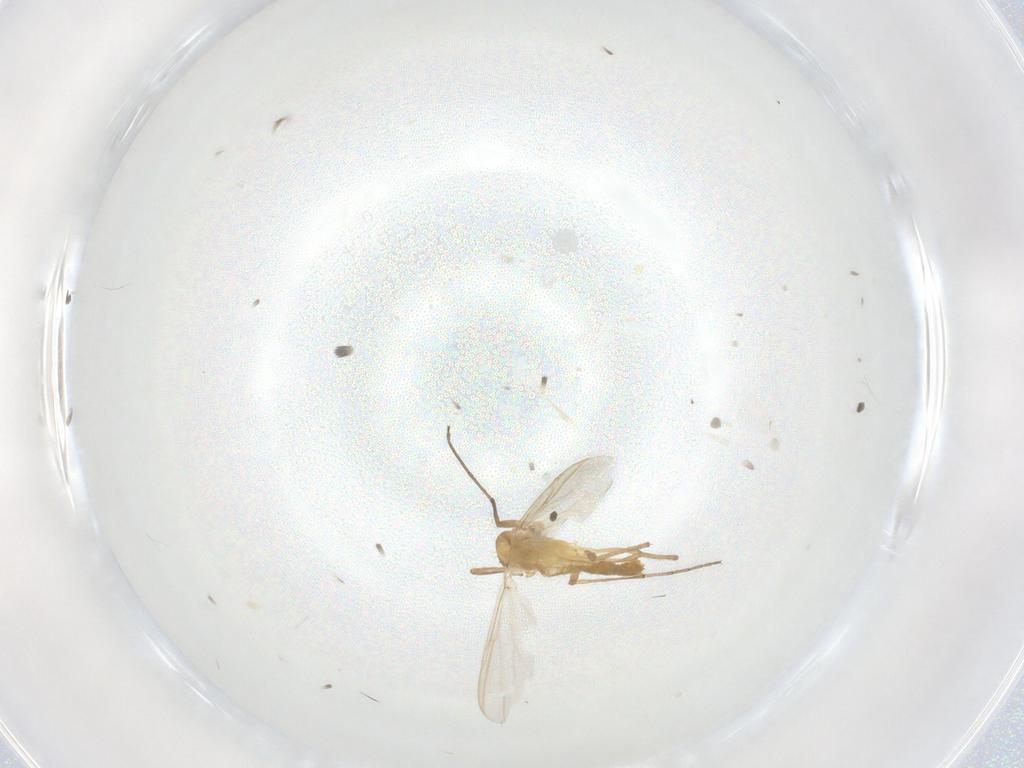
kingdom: Animalia
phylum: Arthropoda
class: Insecta
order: Diptera
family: Chironomidae
